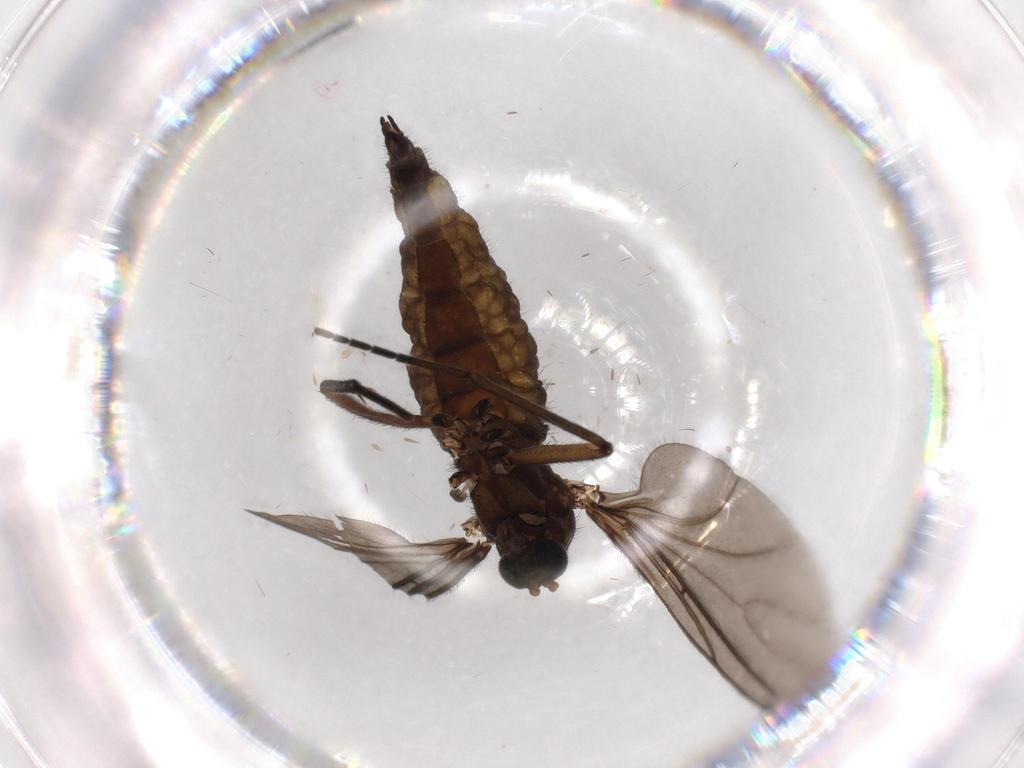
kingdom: Animalia
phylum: Arthropoda
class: Insecta
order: Diptera
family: Sciaridae
